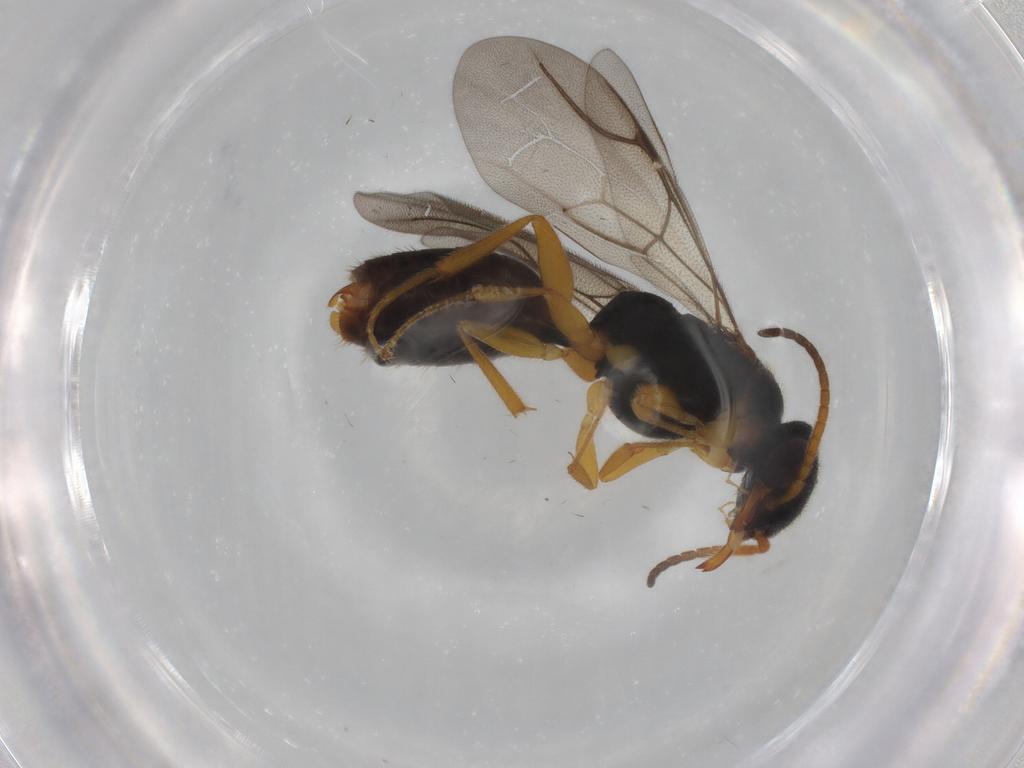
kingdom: Animalia
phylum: Arthropoda
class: Insecta
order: Hymenoptera
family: Bethylidae
